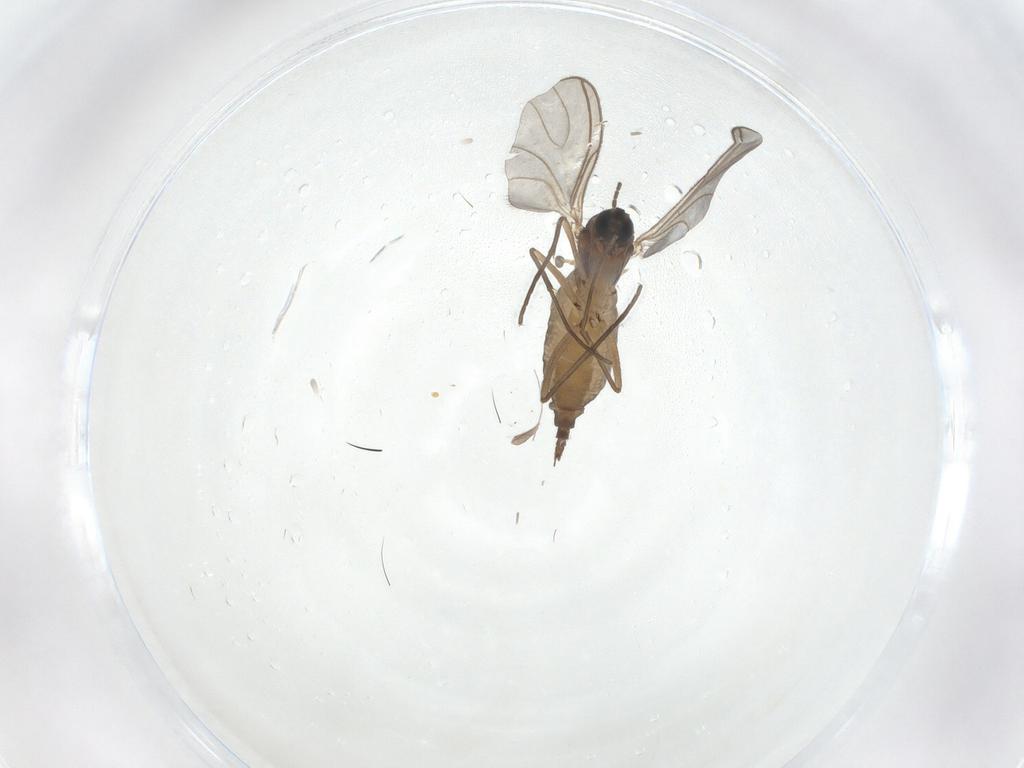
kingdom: Animalia
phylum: Arthropoda
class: Insecta
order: Diptera
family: Sciaridae
